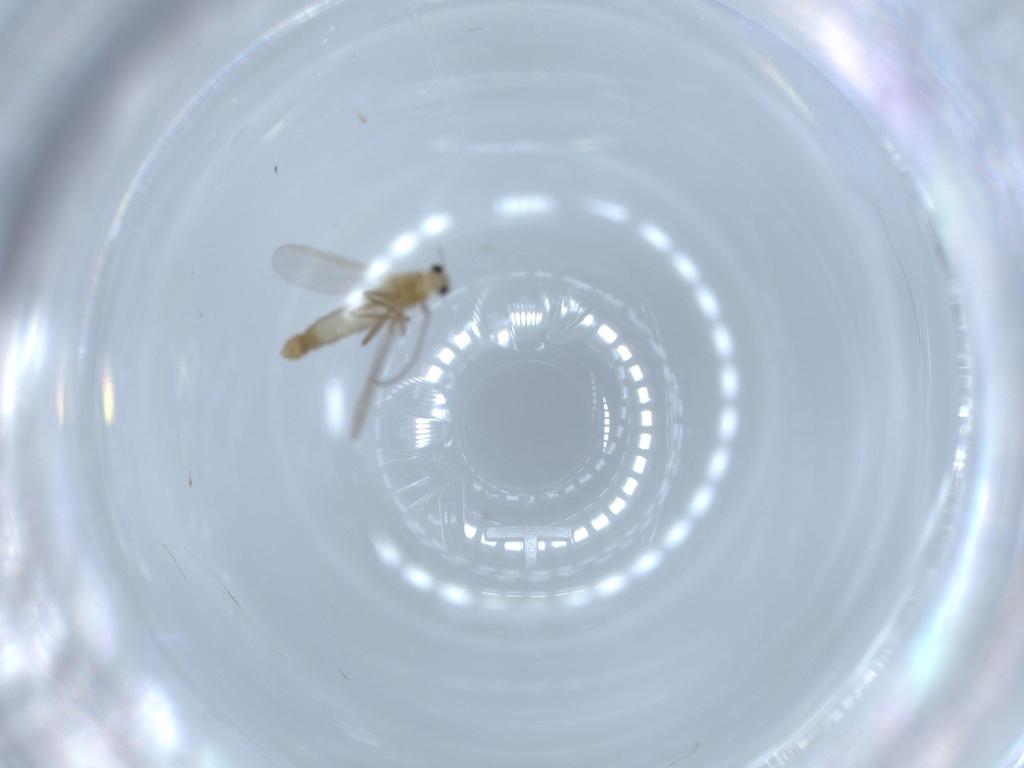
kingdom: Animalia
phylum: Arthropoda
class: Insecta
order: Diptera
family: Chironomidae
